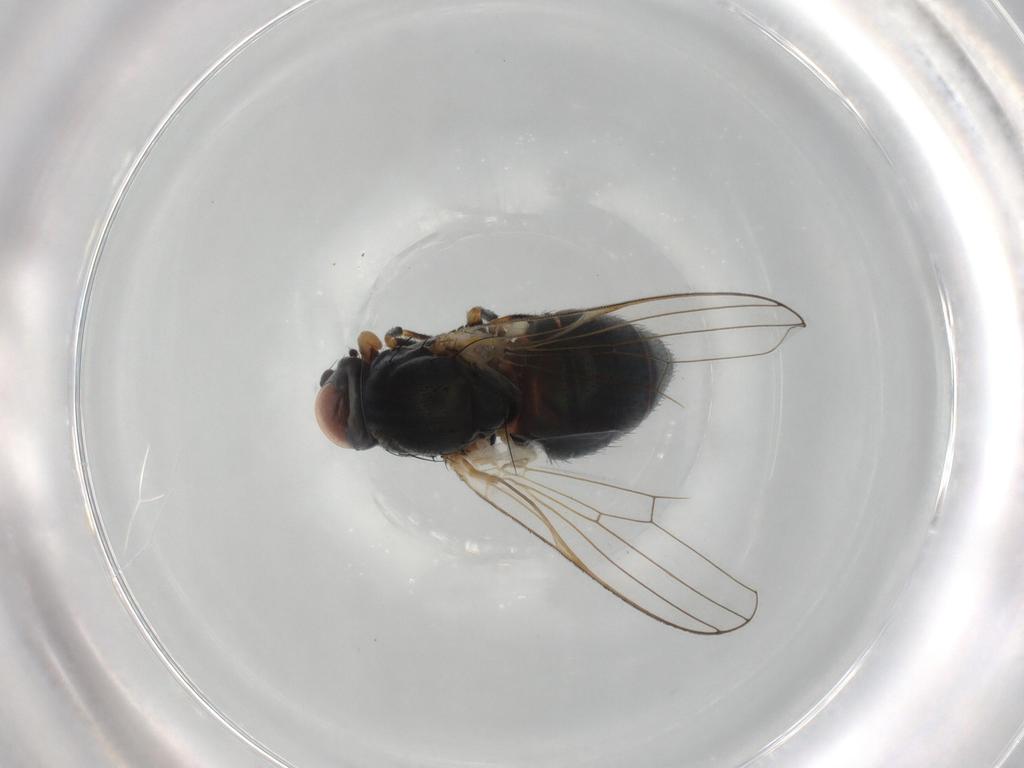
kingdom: Animalia
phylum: Arthropoda
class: Insecta
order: Diptera
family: Chamaemyiidae
